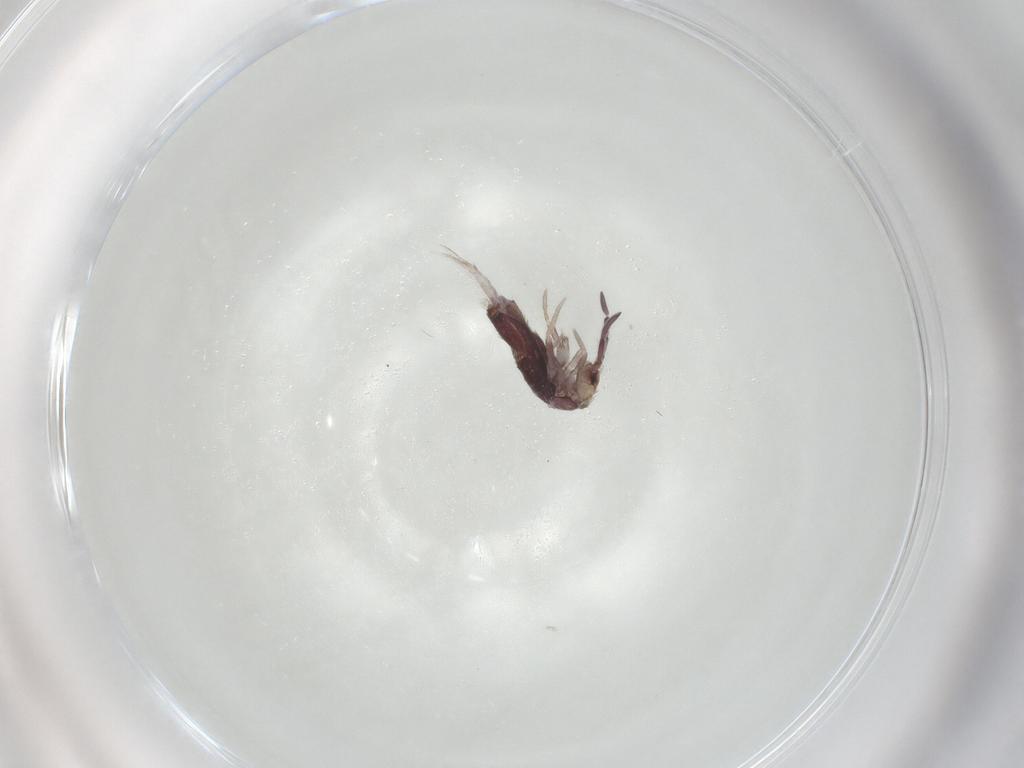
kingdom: Animalia
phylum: Arthropoda
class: Collembola
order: Entomobryomorpha
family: Entomobryidae
